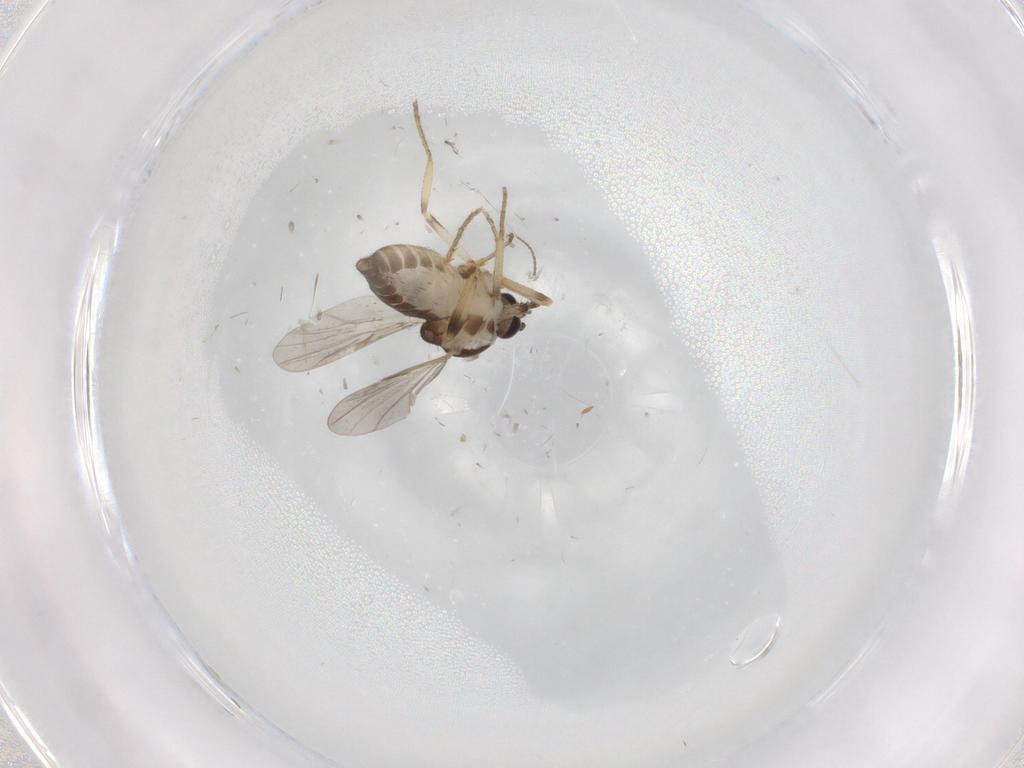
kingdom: Animalia
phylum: Arthropoda
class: Insecta
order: Diptera
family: Ceratopogonidae
